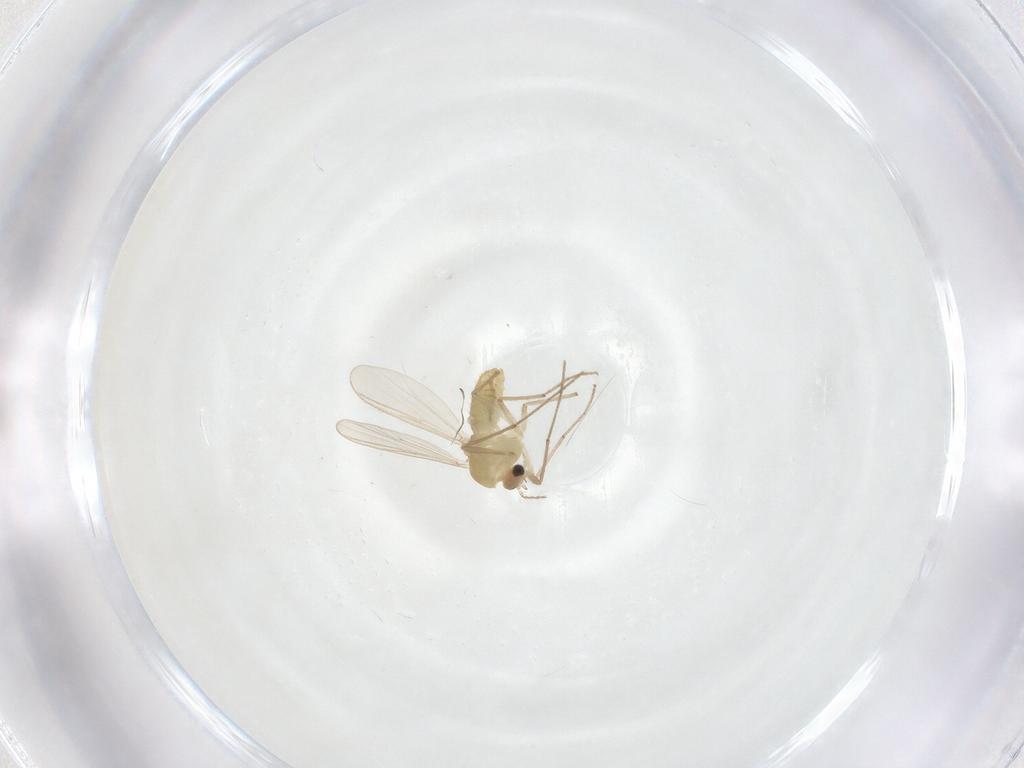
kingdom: Animalia
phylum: Arthropoda
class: Insecta
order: Diptera
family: Chironomidae
